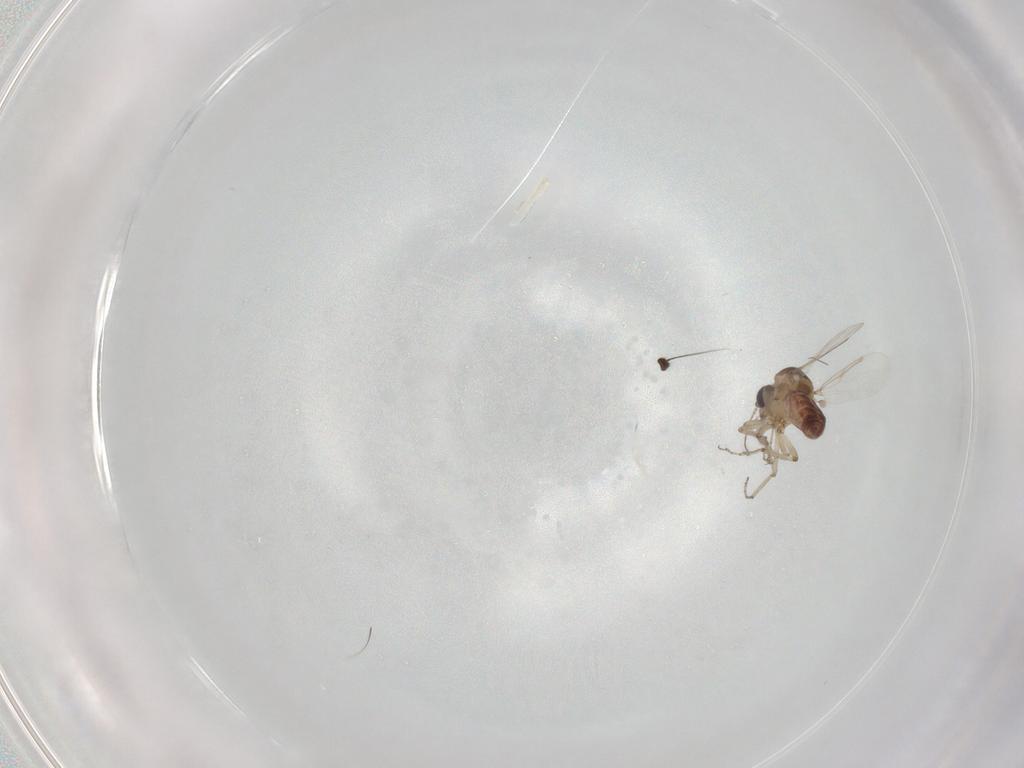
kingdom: Animalia
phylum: Arthropoda
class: Insecta
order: Diptera
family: Ceratopogonidae
